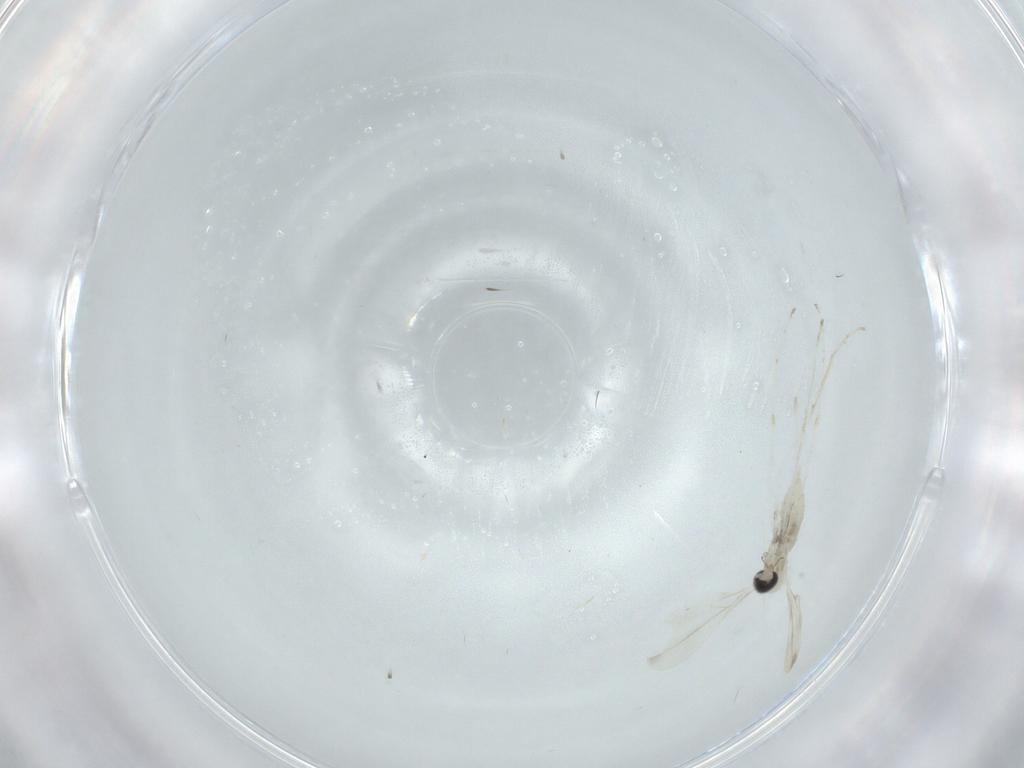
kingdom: Animalia
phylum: Arthropoda
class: Insecta
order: Diptera
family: Cecidomyiidae
